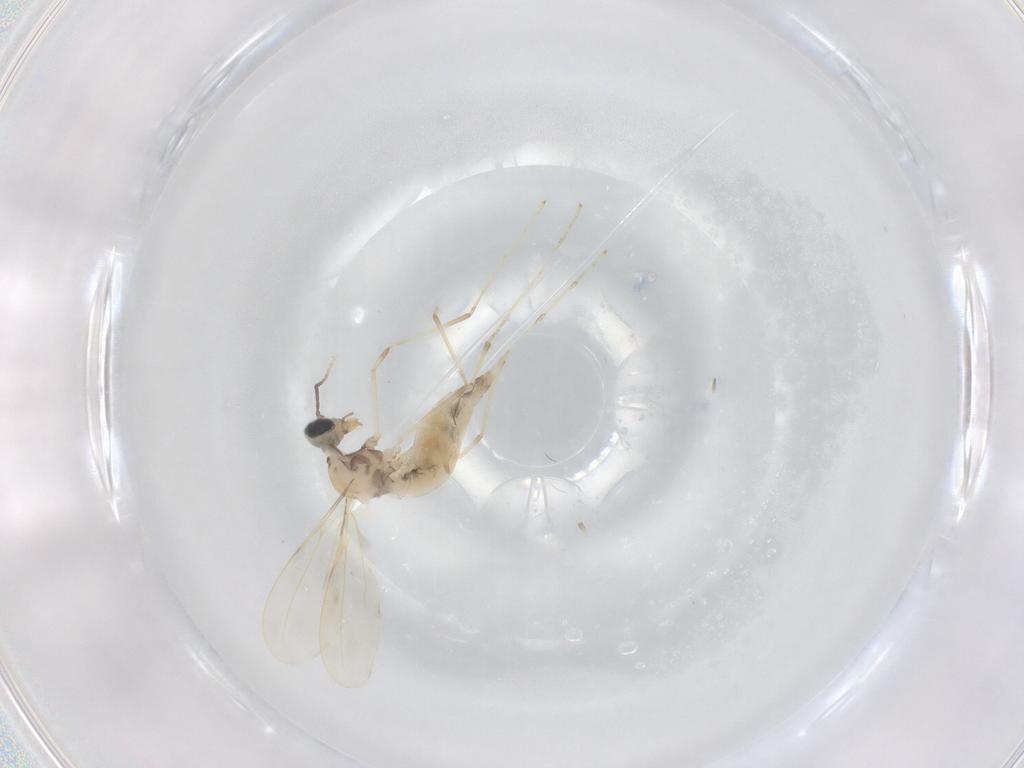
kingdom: Animalia
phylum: Arthropoda
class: Insecta
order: Diptera
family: Cecidomyiidae
